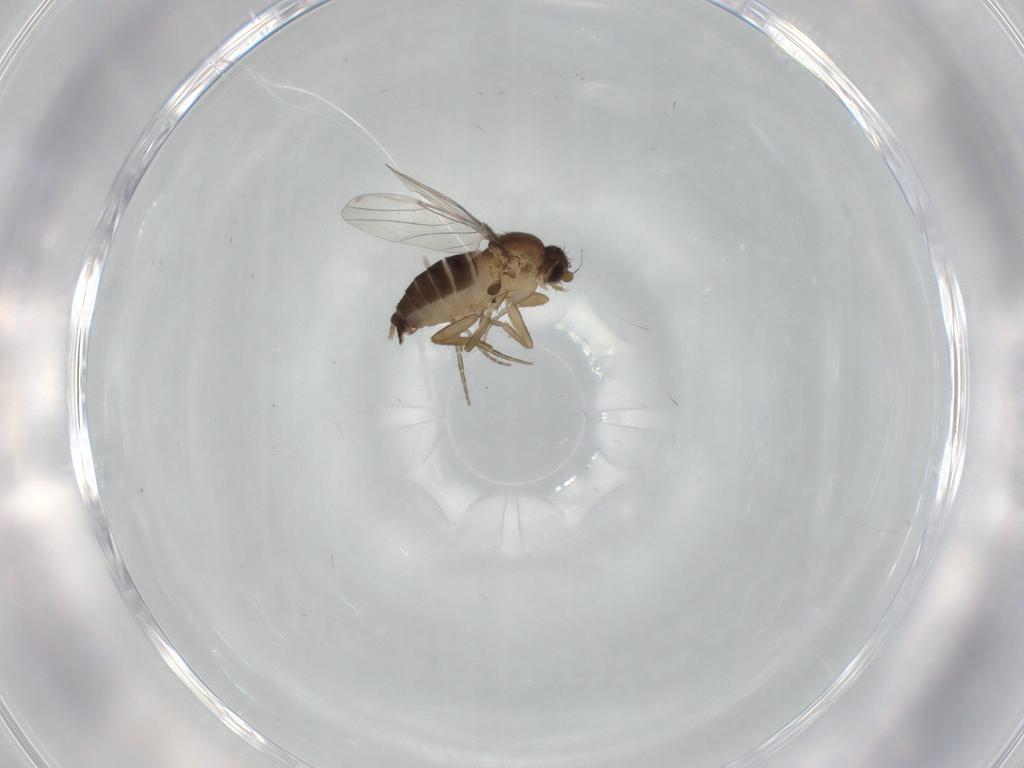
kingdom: Animalia
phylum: Arthropoda
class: Insecta
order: Diptera
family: Phoridae
